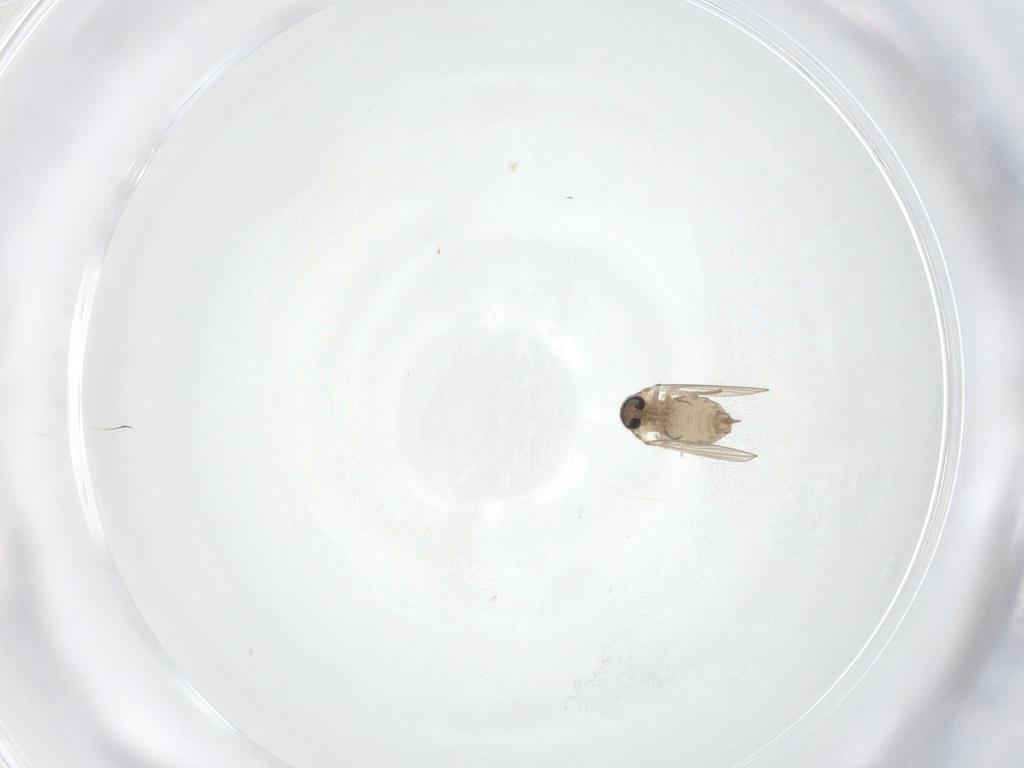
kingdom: Animalia
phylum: Arthropoda
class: Insecta
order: Diptera
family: Psychodidae
